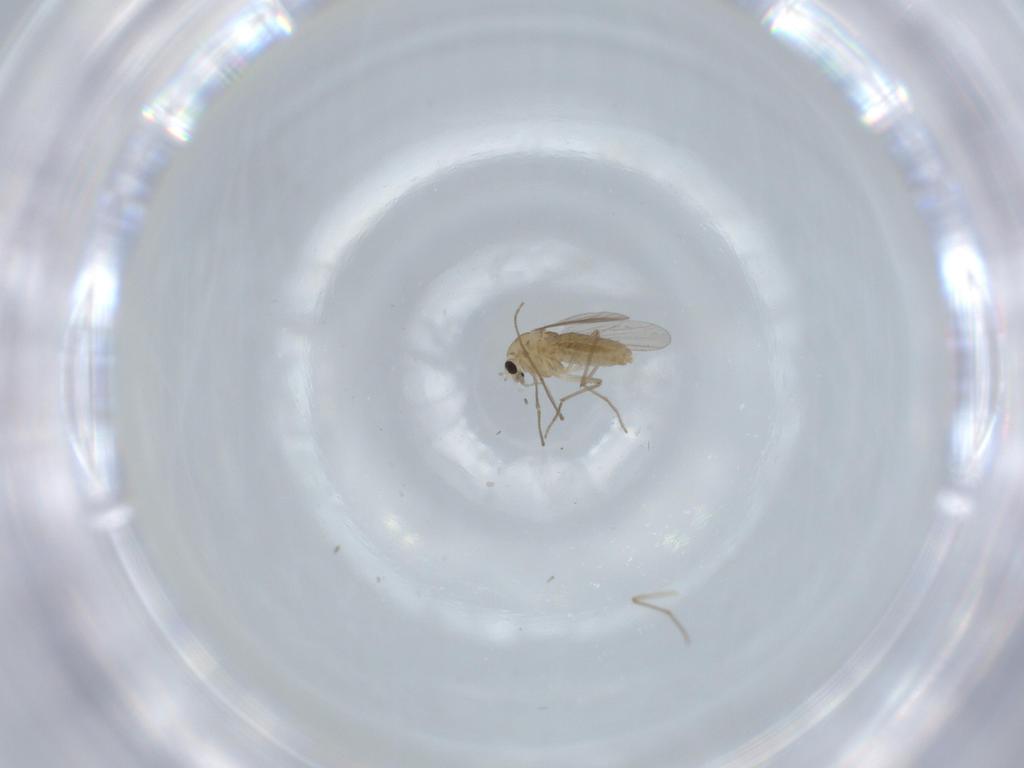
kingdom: Animalia
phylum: Arthropoda
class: Insecta
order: Diptera
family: Chironomidae
